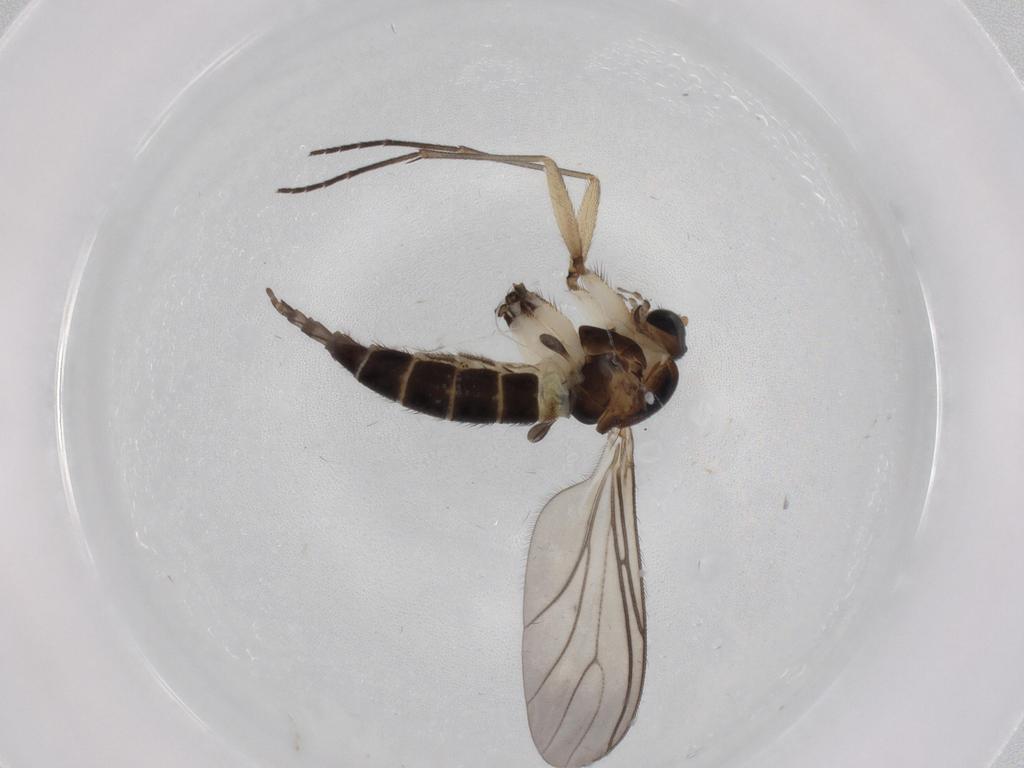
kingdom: Animalia
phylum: Arthropoda
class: Insecta
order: Diptera
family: Sciaridae
